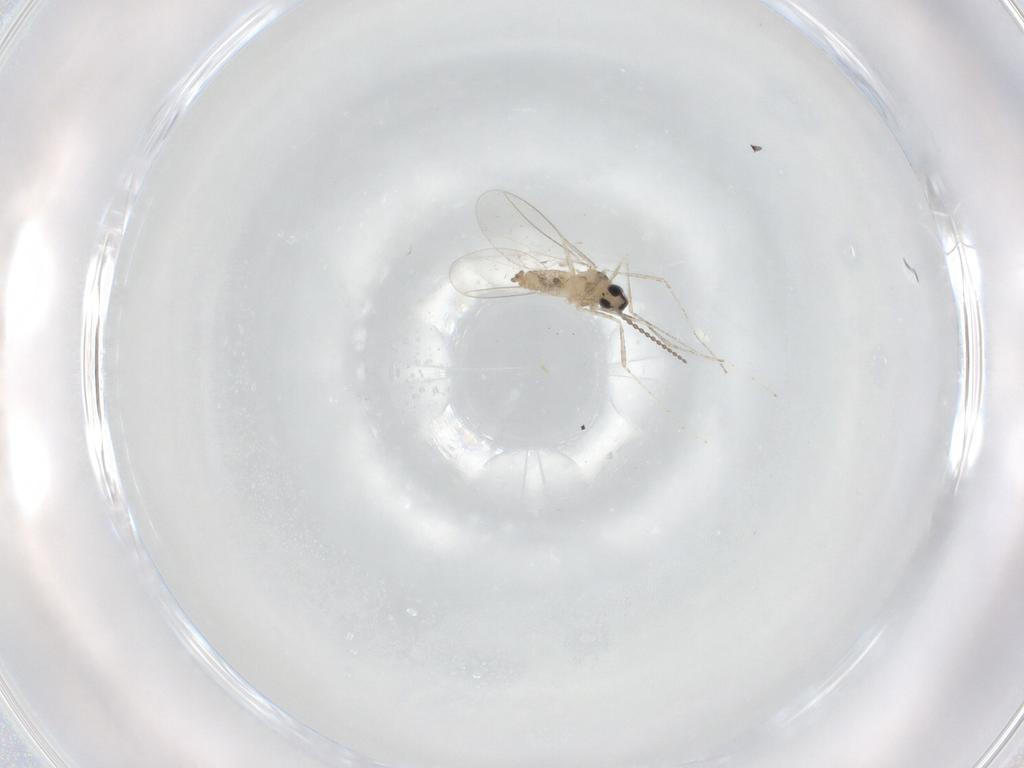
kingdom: Animalia
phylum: Arthropoda
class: Insecta
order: Diptera
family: Cecidomyiidae
